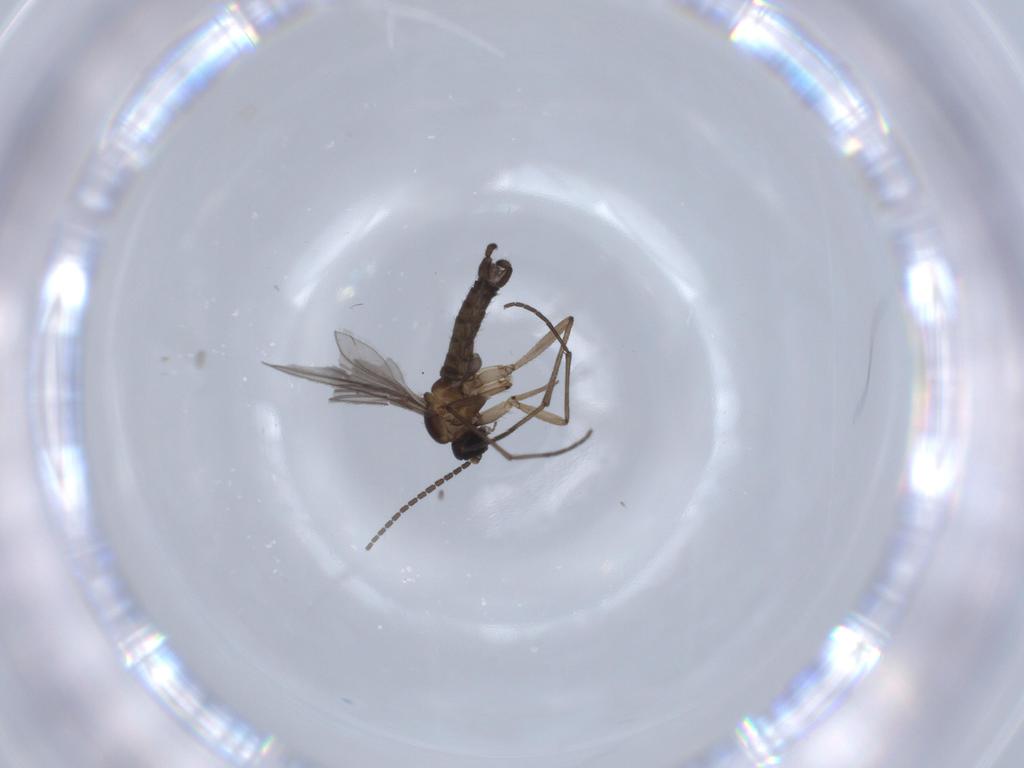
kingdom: Animalia
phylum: Arthropoda
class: Insecta
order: Diptera
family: Sciaridae
